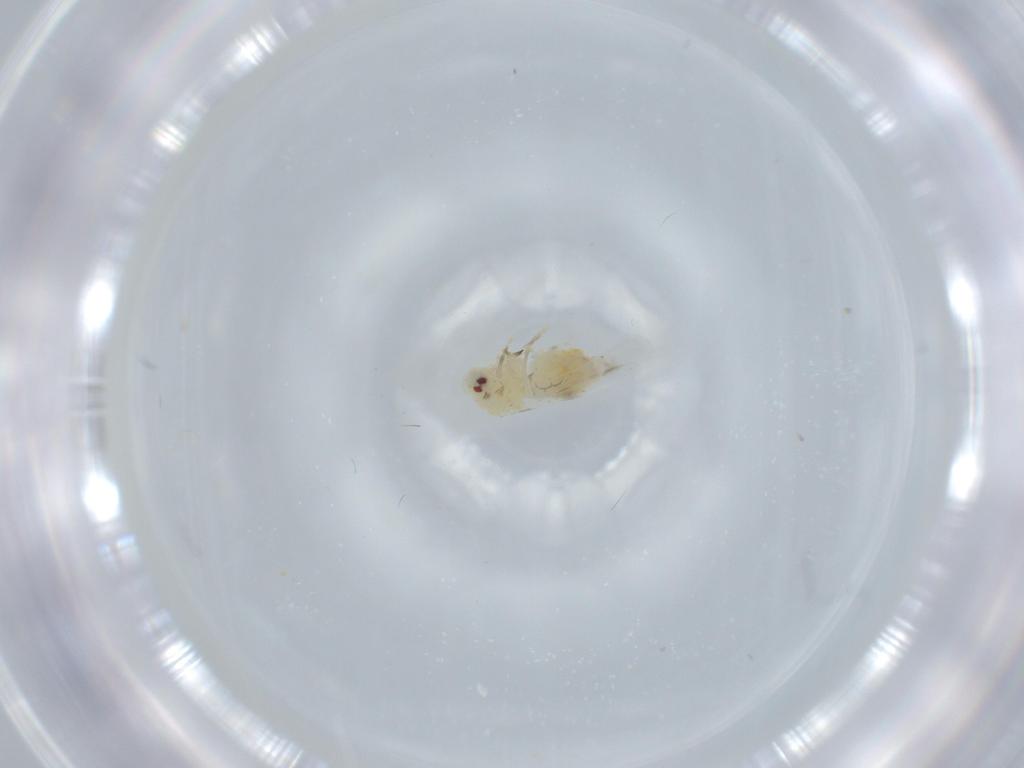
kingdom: Animalia
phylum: Arthropoda
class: Insecta
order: Hemiptera
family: Aleyrodidae
